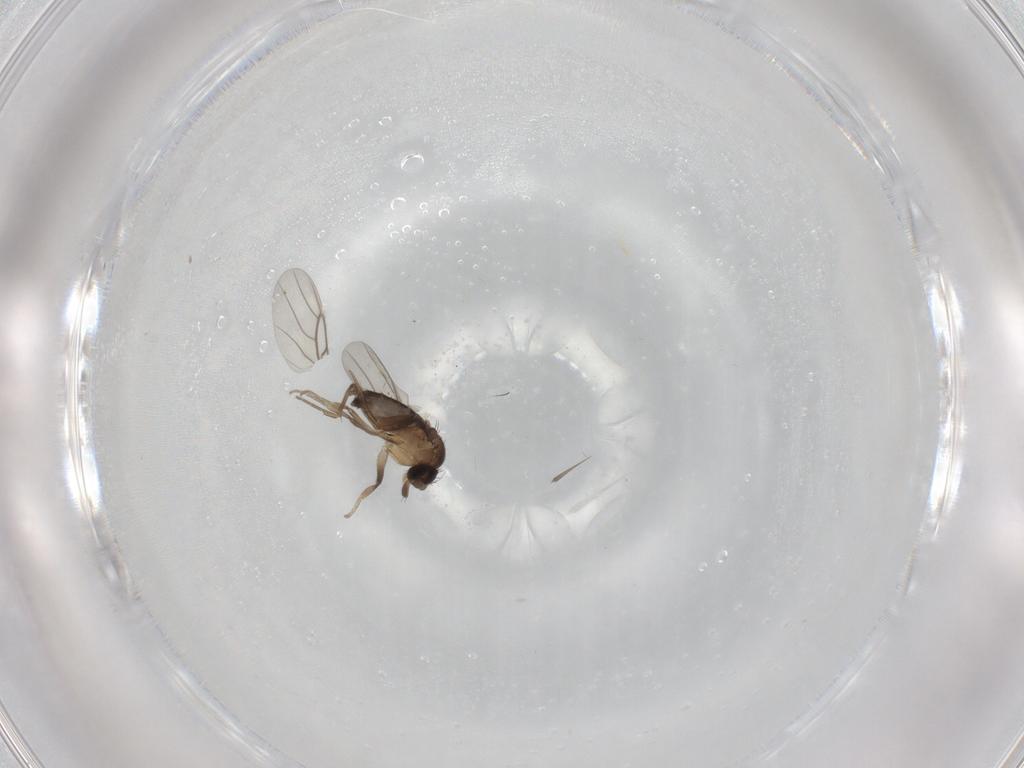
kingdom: Animalia
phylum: Arthropoda
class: Insecta
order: Diptera
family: Phoridae
